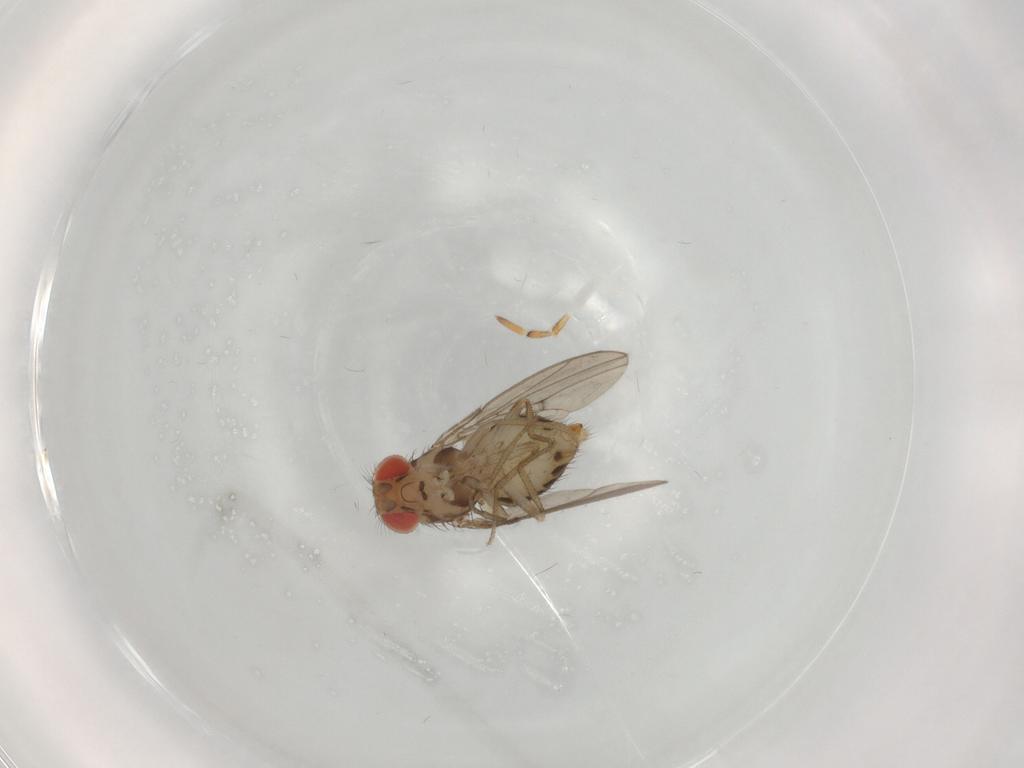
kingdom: Animalia
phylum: Arthropoda
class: Insecta
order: Diptera
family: Drosophilidae
